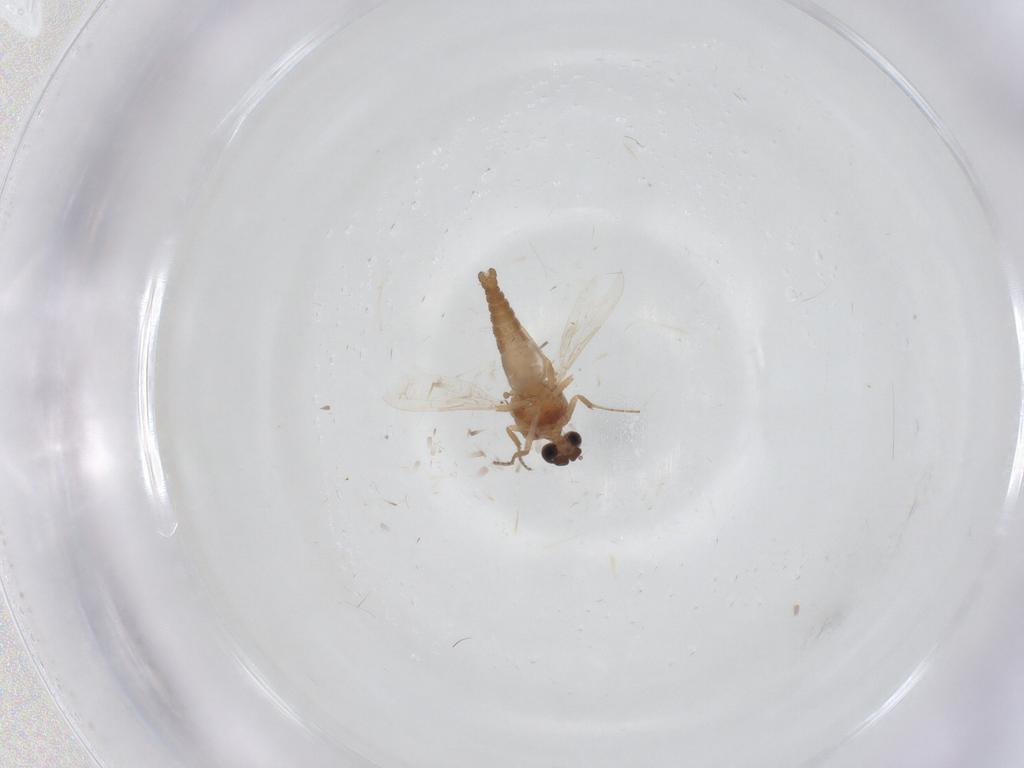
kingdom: Animalia
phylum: Arthropoda
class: Insecta
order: Diptera
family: Ceratopogonidae
